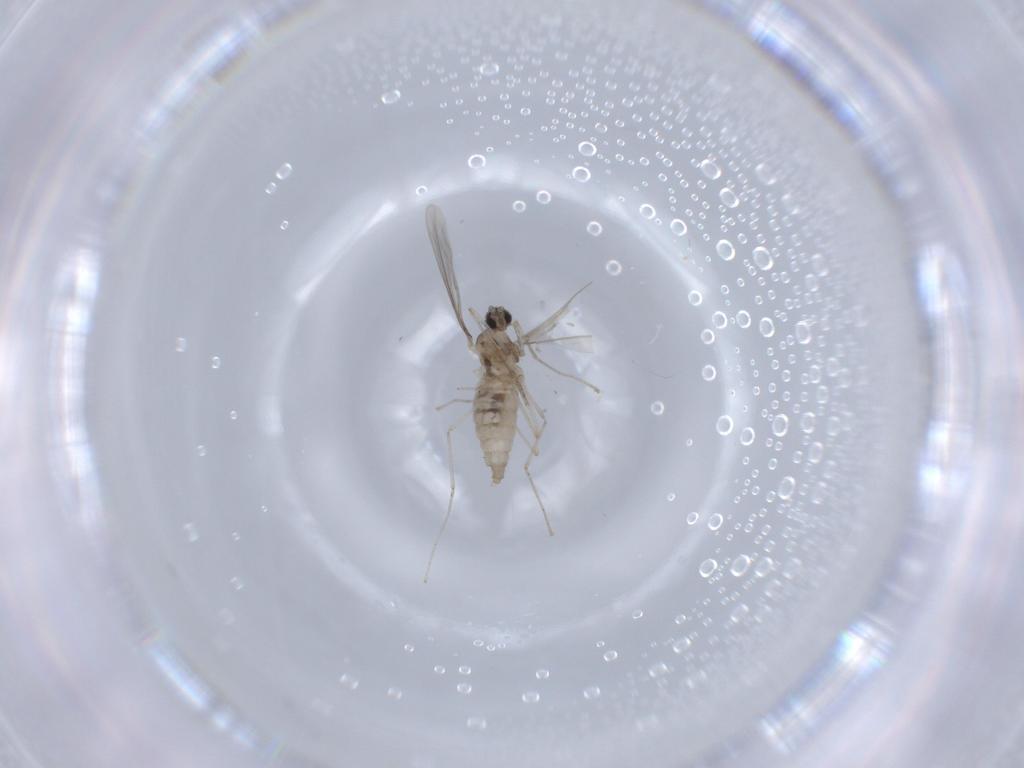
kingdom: Animalia
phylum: Arthropoda
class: Insecta
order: Diptera
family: Cecidomyiidae
